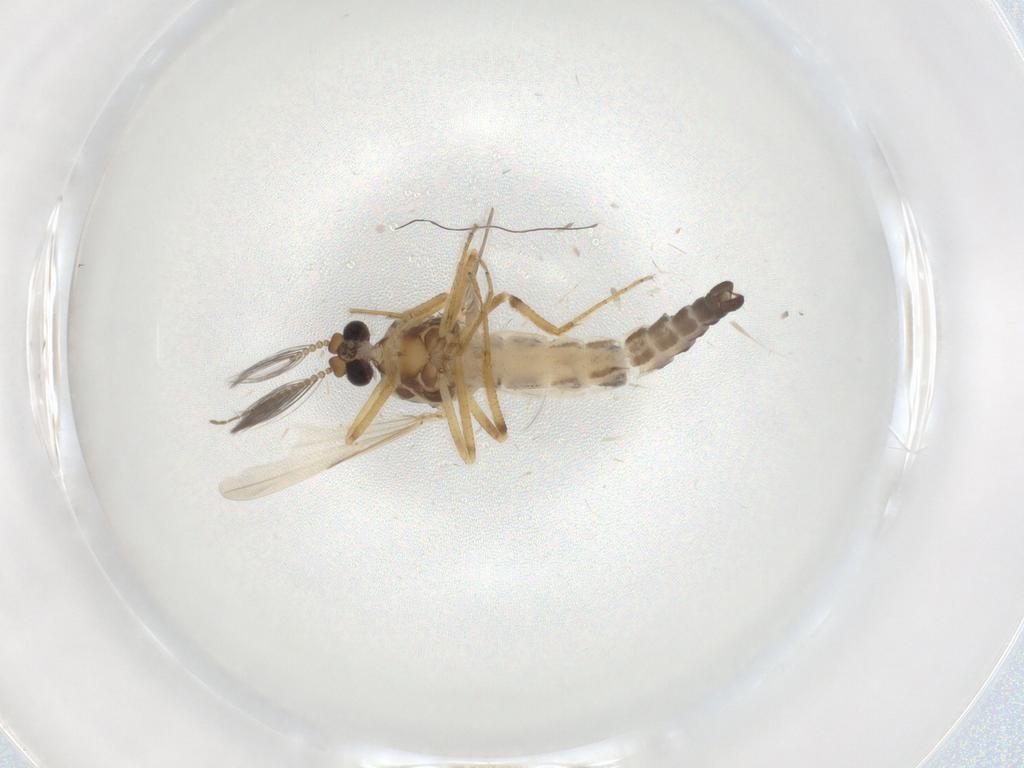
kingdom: Animalia
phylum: Arthropoda
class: Insecta
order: Diptera
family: Ceratopogonidae
